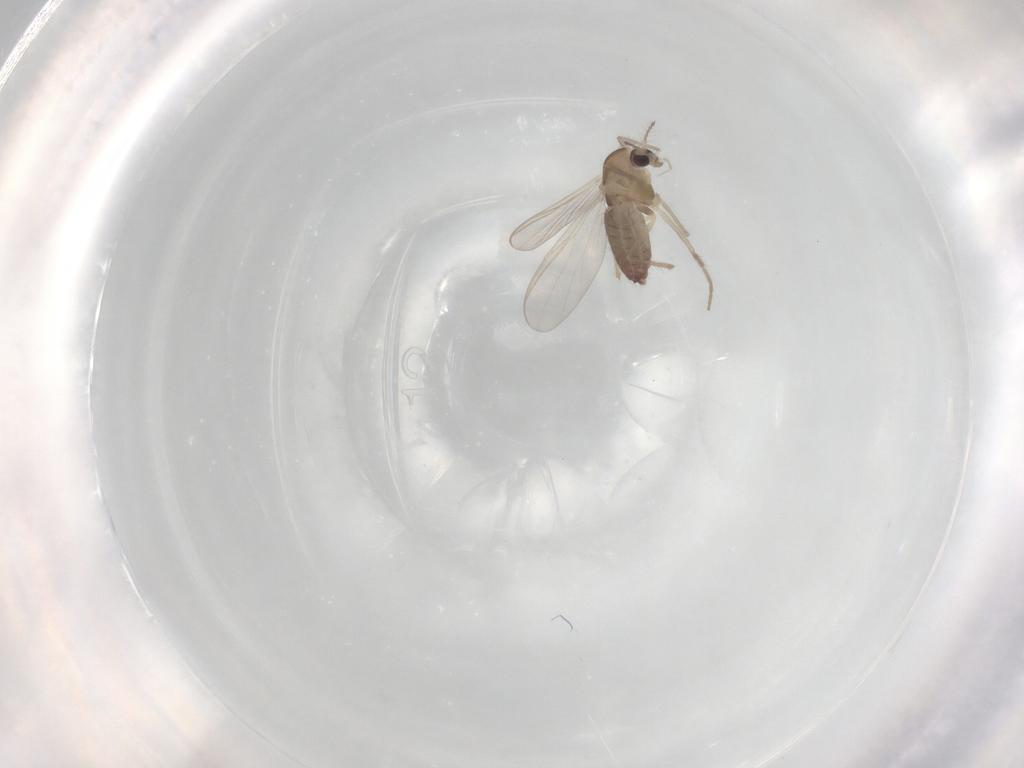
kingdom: Animalia
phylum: Arthropoda
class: Insecta
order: Diptera
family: Chironomidae
